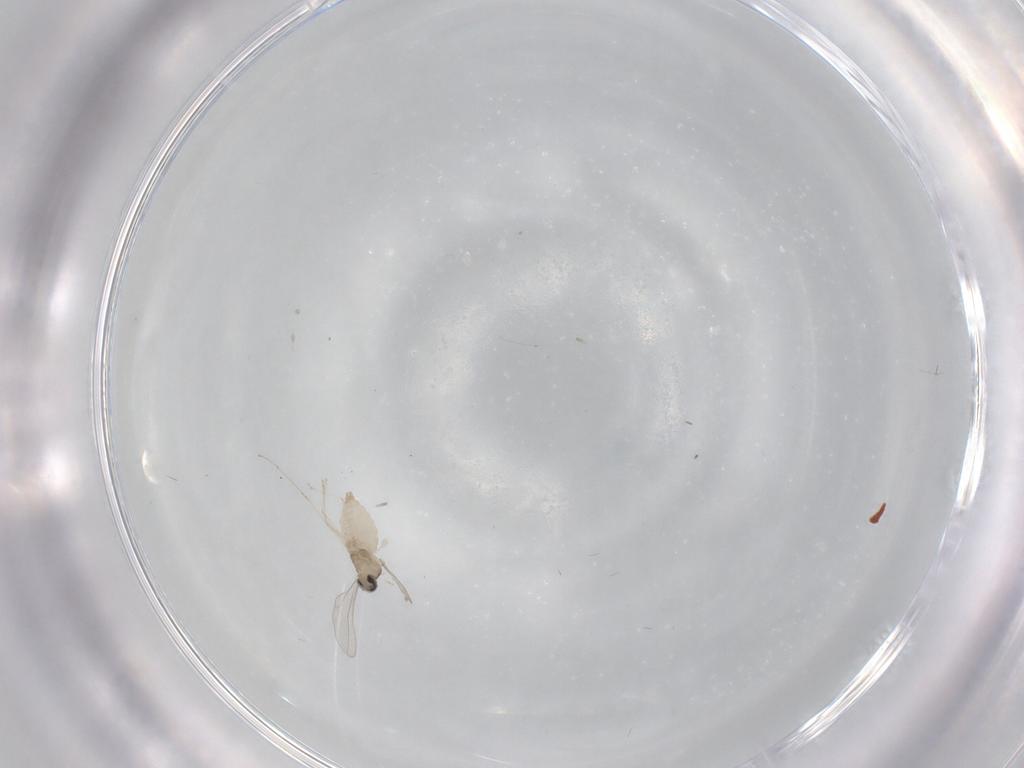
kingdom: Animalia
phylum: Arthropoda
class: Insecta
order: Diptera
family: Cecidomyiidae
